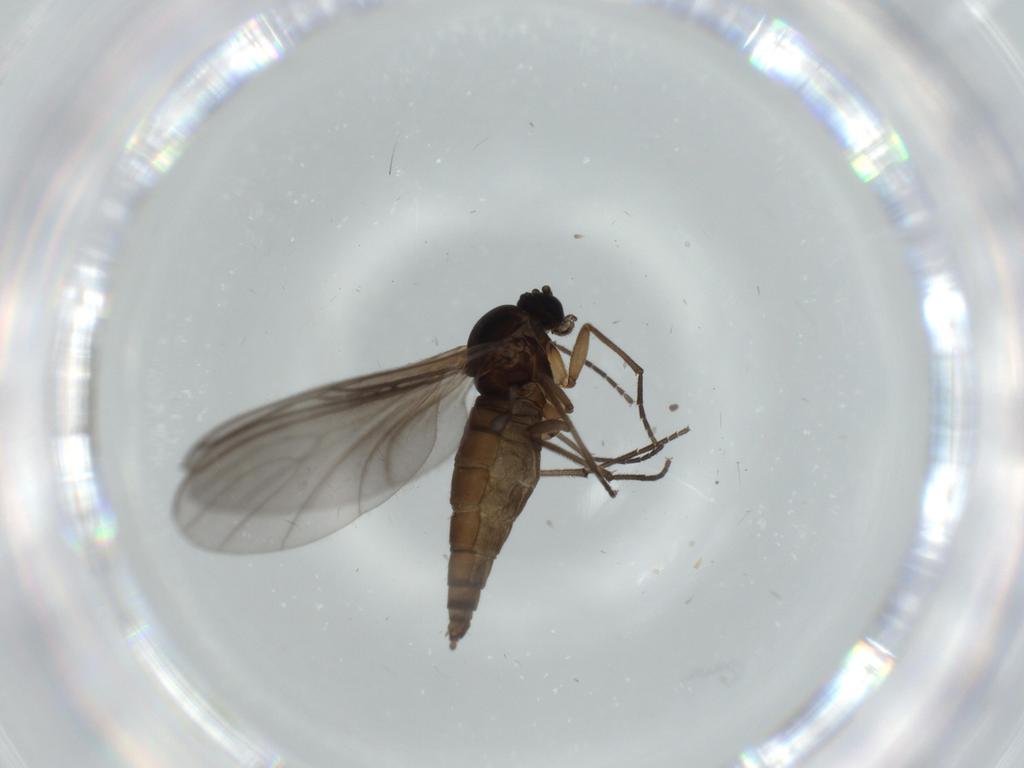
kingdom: Animalia
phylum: Arthropoda
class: Insecta
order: Diptera
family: Sciaridae
